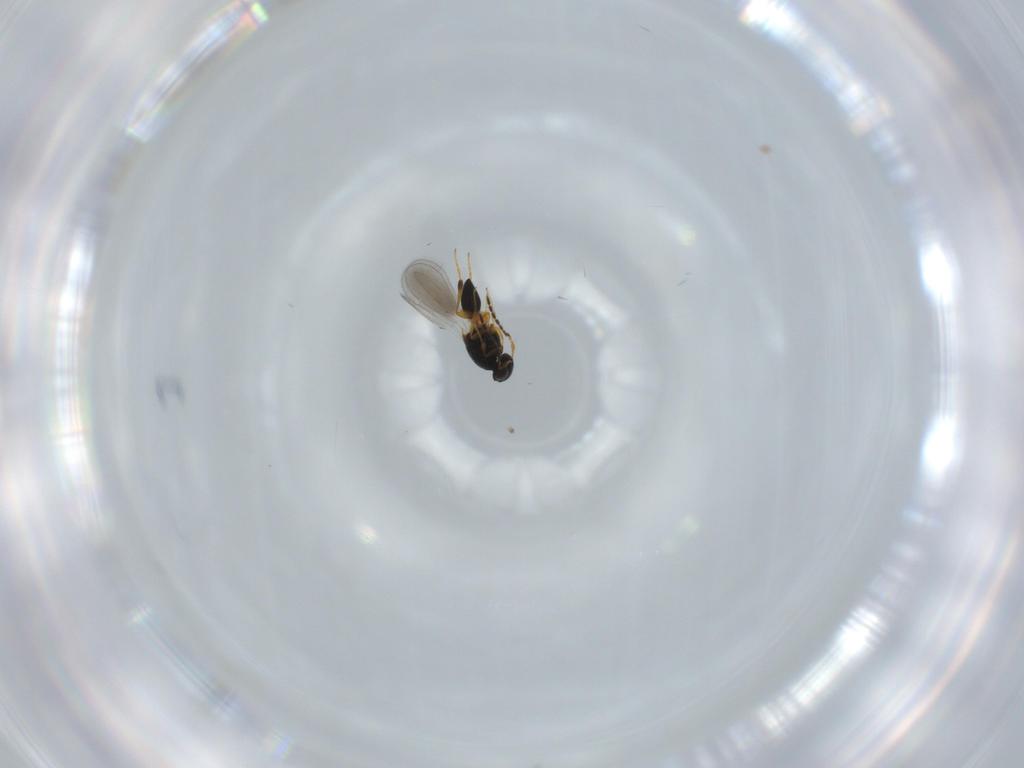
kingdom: Animalia
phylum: Arthropoda
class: Insecta
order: Hymenoptera
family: Platygastridae
